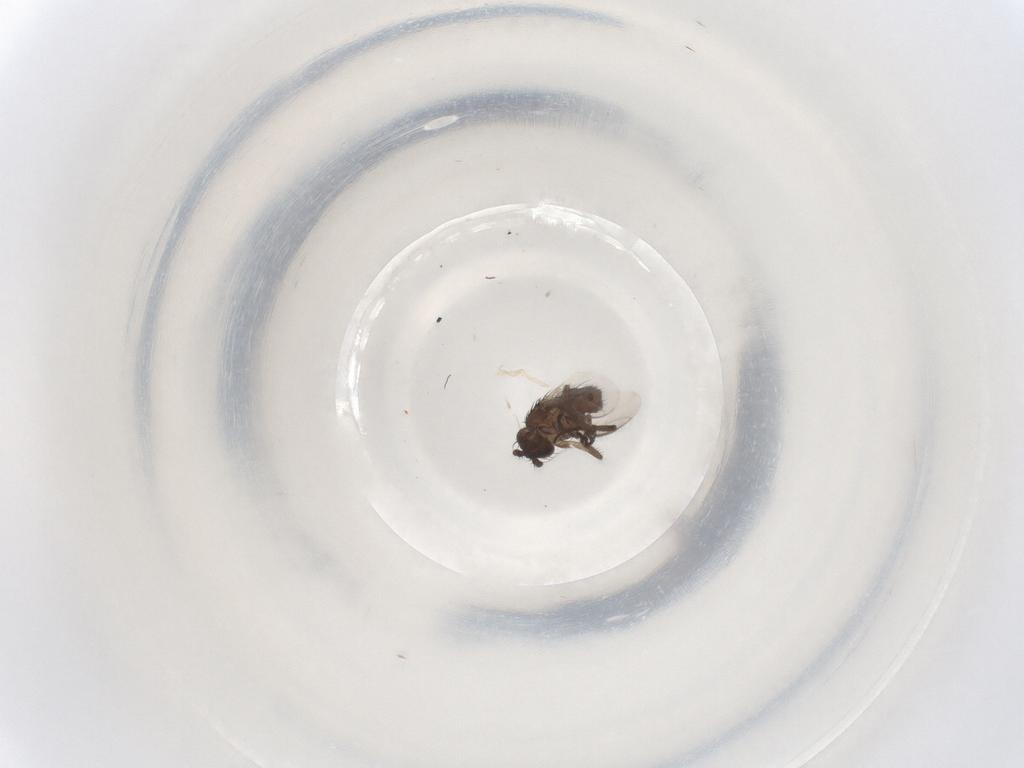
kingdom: Animalia
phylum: Arthropoda
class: Insecta
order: Diptera
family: Sphaeroceridae
